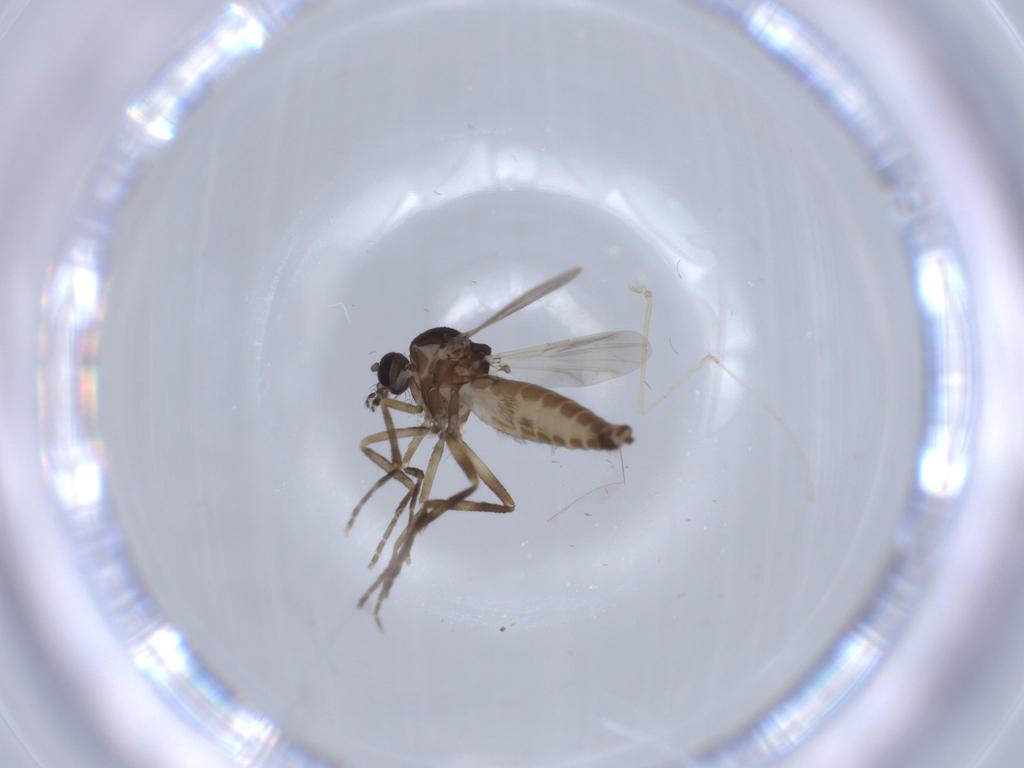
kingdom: Animalia
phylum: Arthropoda
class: Insecta
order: Diptera
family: Ceratopogonidae
